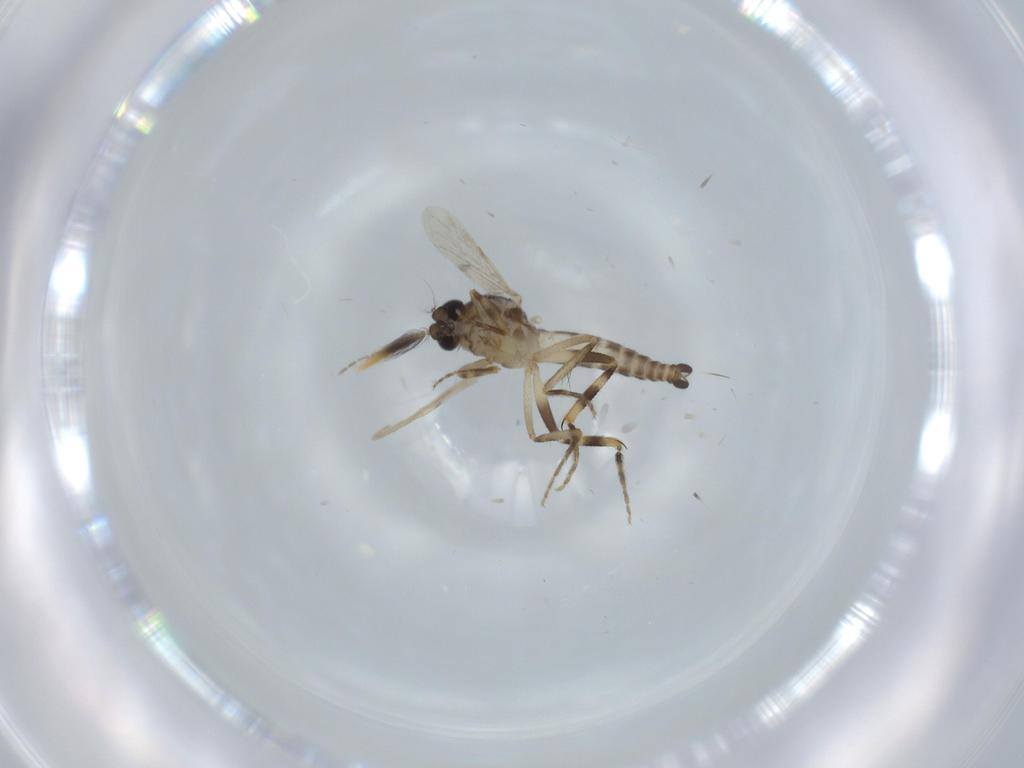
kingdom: Animalia
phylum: Arthropoda
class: Insecta
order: Diptera
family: Ceratopogonidae
